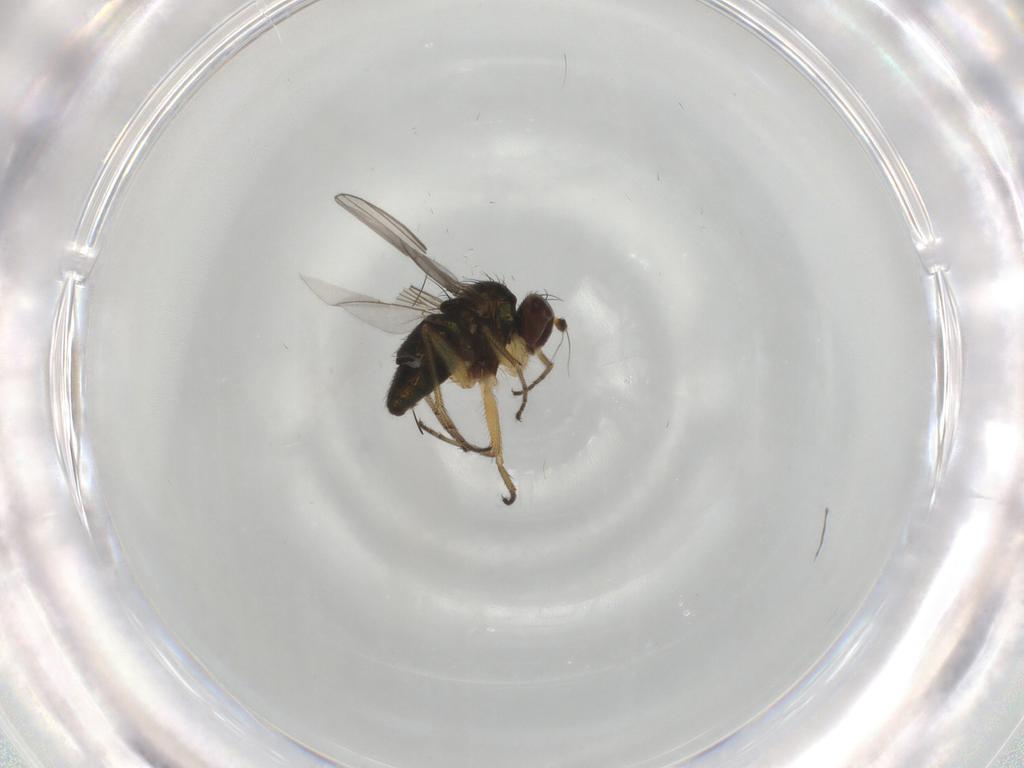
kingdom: Animalia
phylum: Arthropoda
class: Insecta
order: Diptera
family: Dolichopodidae
